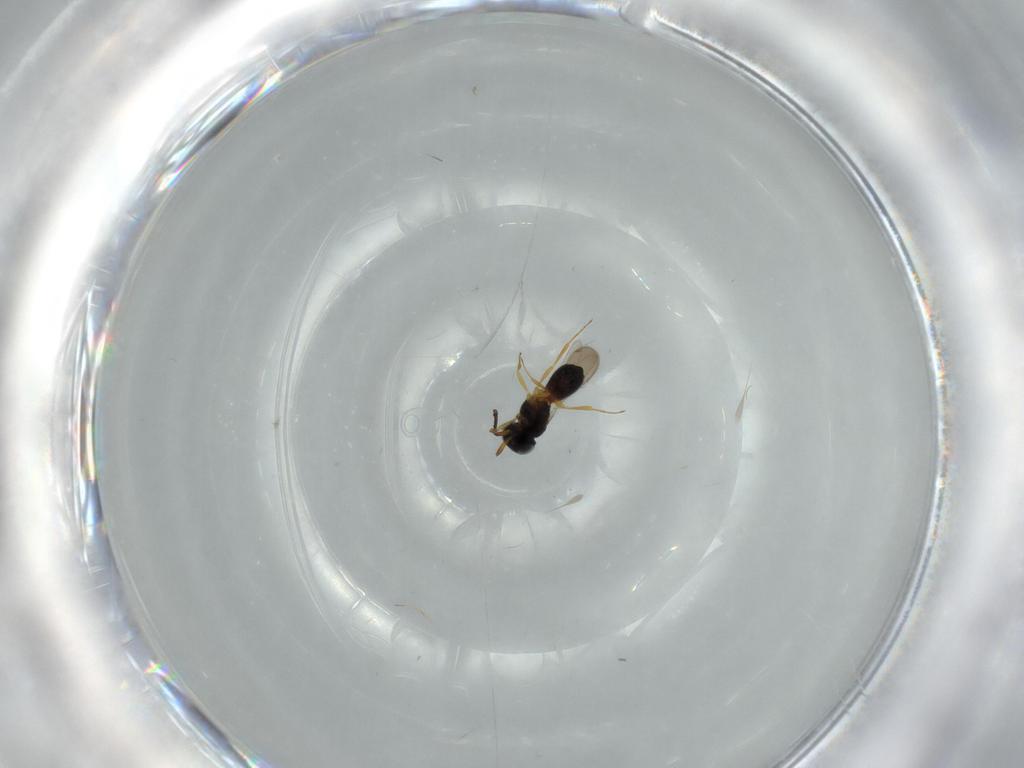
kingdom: Animalia
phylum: Arthropoda
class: Insecta
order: Hymenoptera
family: Scelionidae
